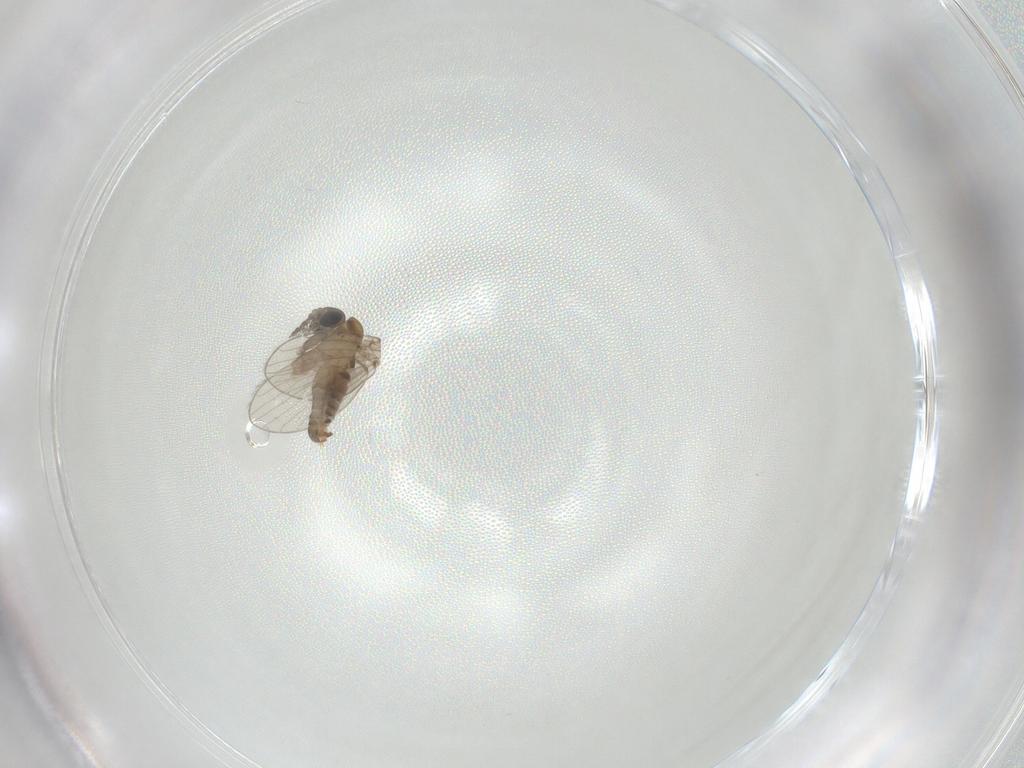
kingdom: Animalia
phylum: Arthropoda
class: Insecta
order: Diptera
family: Psychodidae
